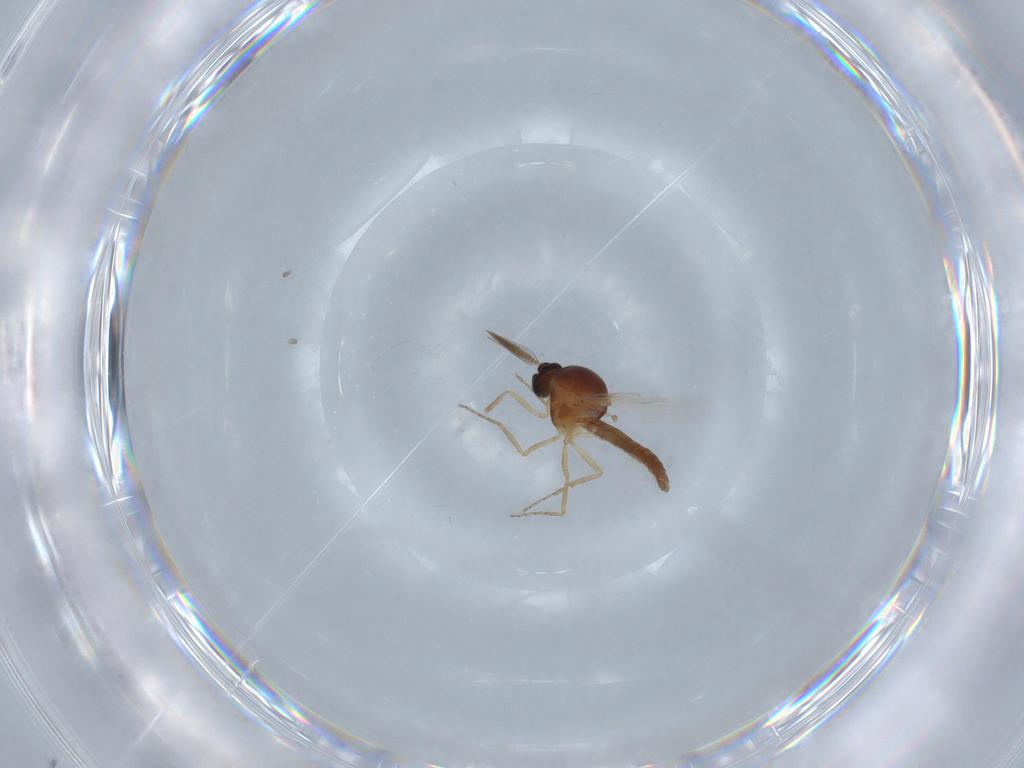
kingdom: Animalia
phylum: Arthropoda
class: Insecta
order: Diptera
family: Ceratopogonidae
